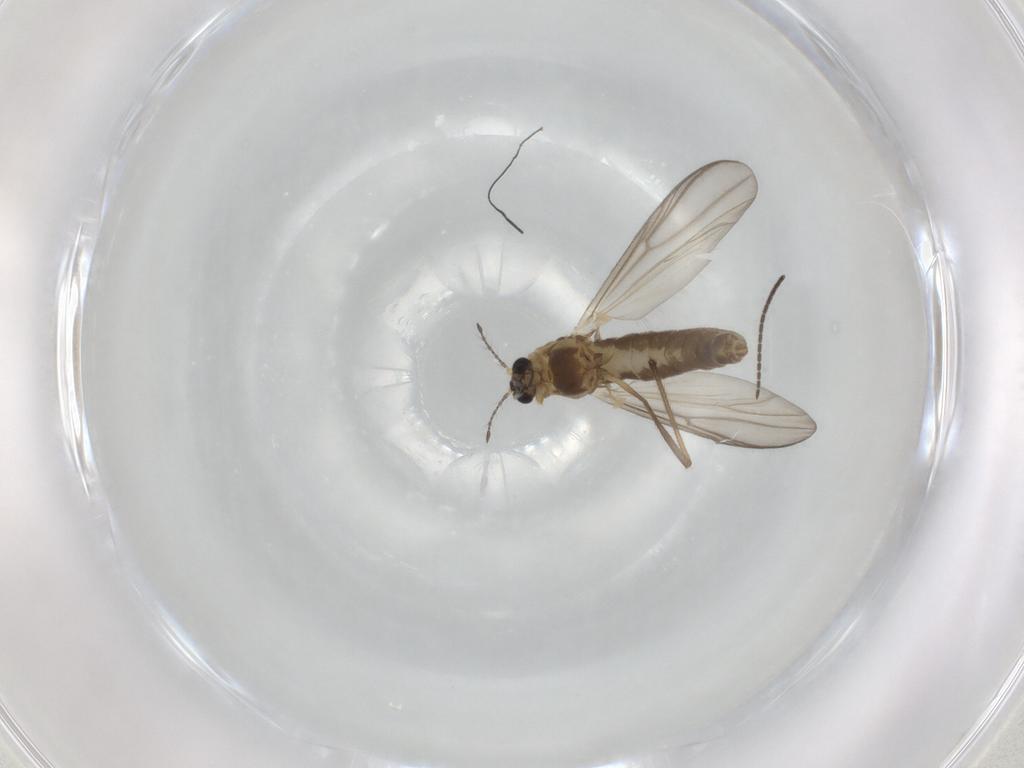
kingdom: Animalia
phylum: Arthropoda
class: Insecta
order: Diptera
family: Chironomidae
